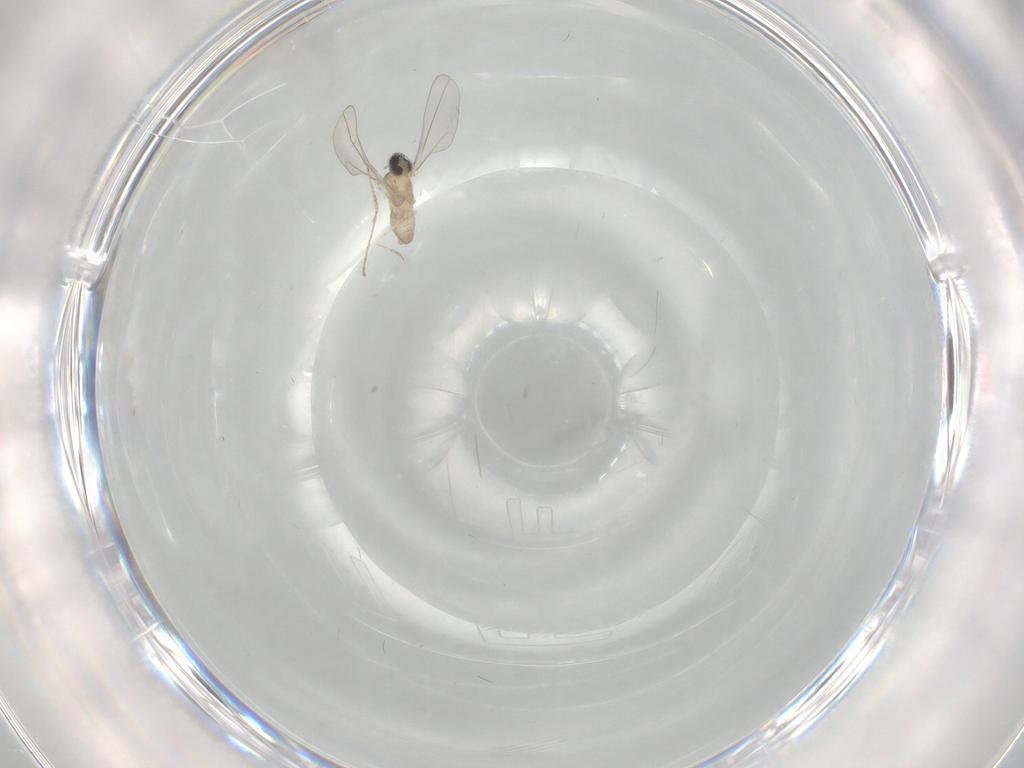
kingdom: Animalia
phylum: Arthropoda
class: Insecta
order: Diptera
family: Cecidomyiidae
